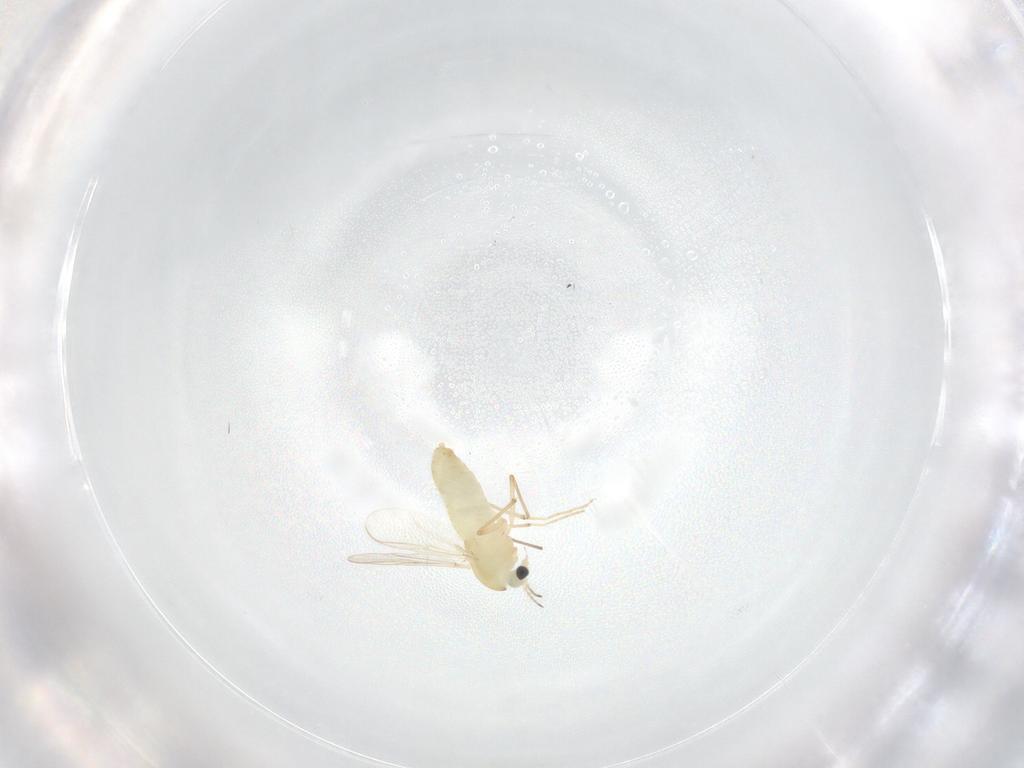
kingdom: Animalia
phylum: Arthropoda
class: Insecta
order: Diptera
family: Chironomidae
